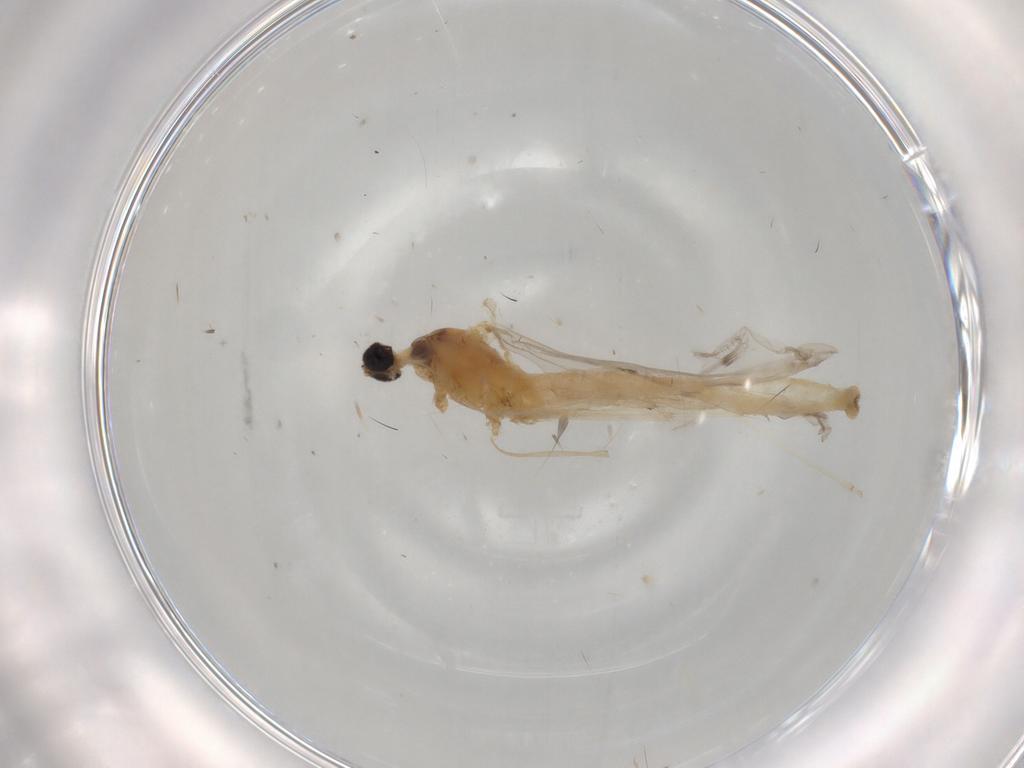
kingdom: Animalia
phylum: Arthropoda
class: Insecta
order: Diptera
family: Cecidomyiidae
